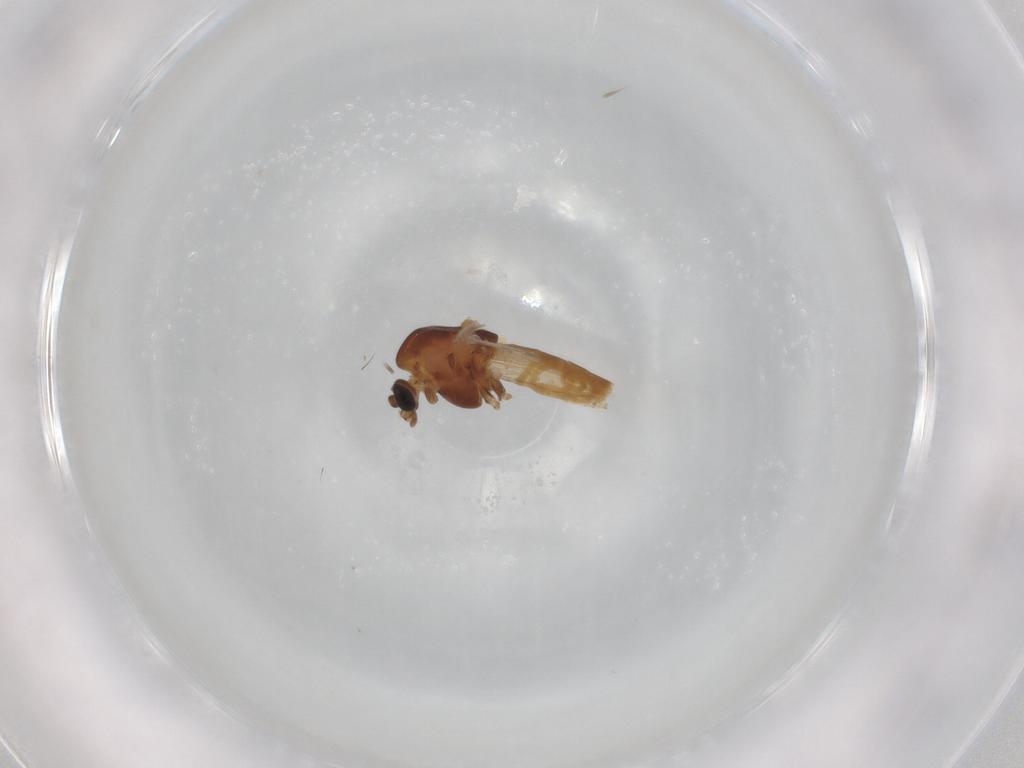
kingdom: Animalia
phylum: Arthropoda
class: Insecta
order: Diptera
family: Chironomidae
